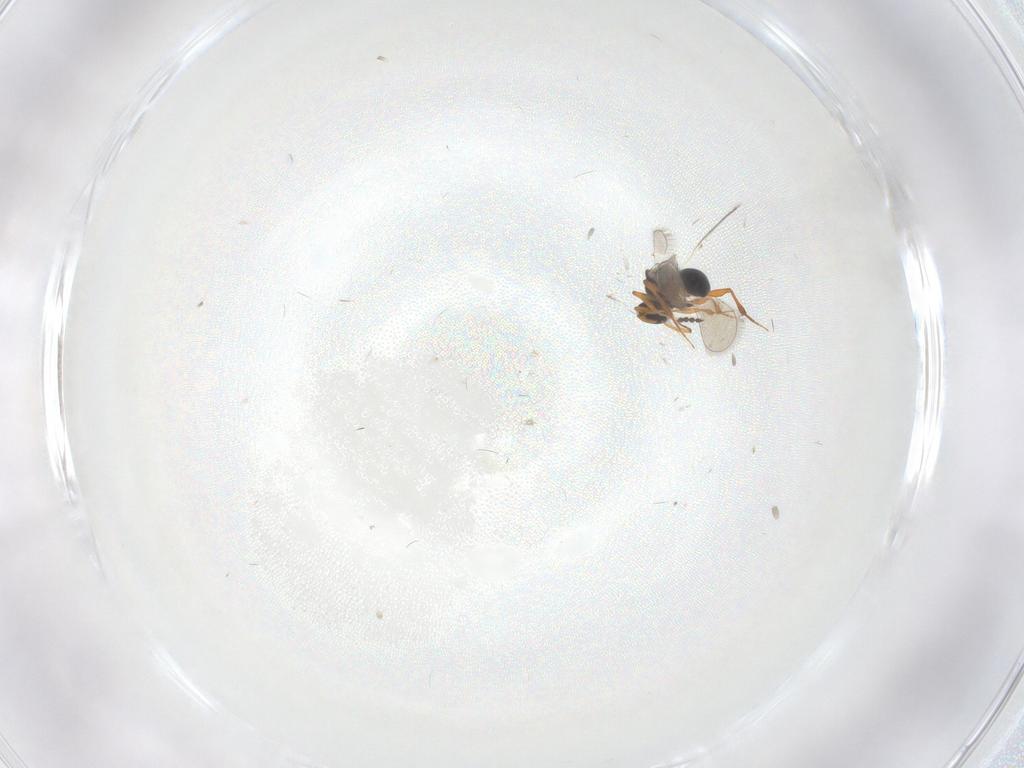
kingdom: Animalia
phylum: Arthropoda
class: Insecta
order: Hymenoptera
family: Platygastridae
